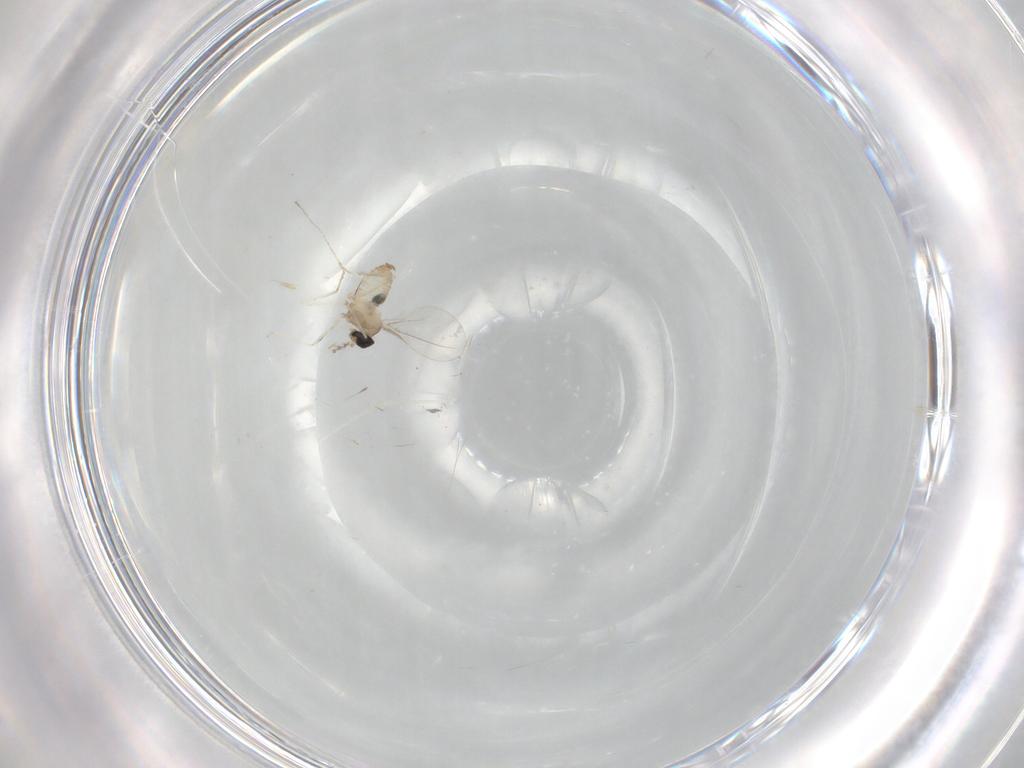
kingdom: Animalia
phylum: Arthropoda
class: Insecta
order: Diptera
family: Cecidomyiidae
